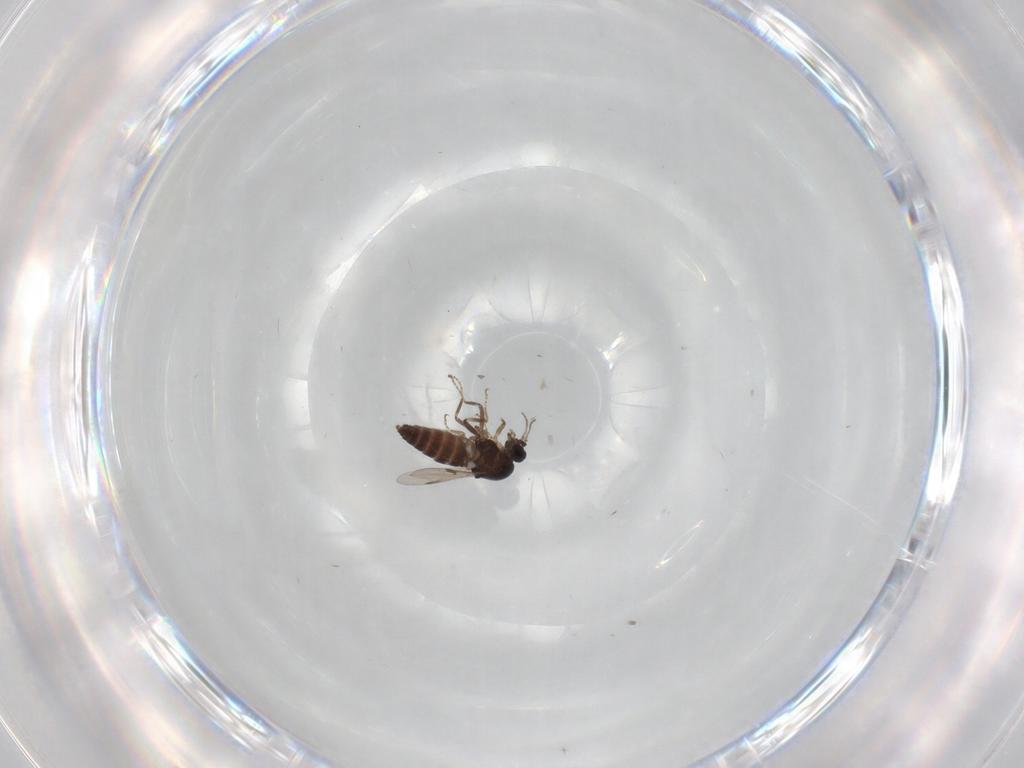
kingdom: Animalia
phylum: Arthropoda
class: Insecta
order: Diptera
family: Ceratopogonidae
